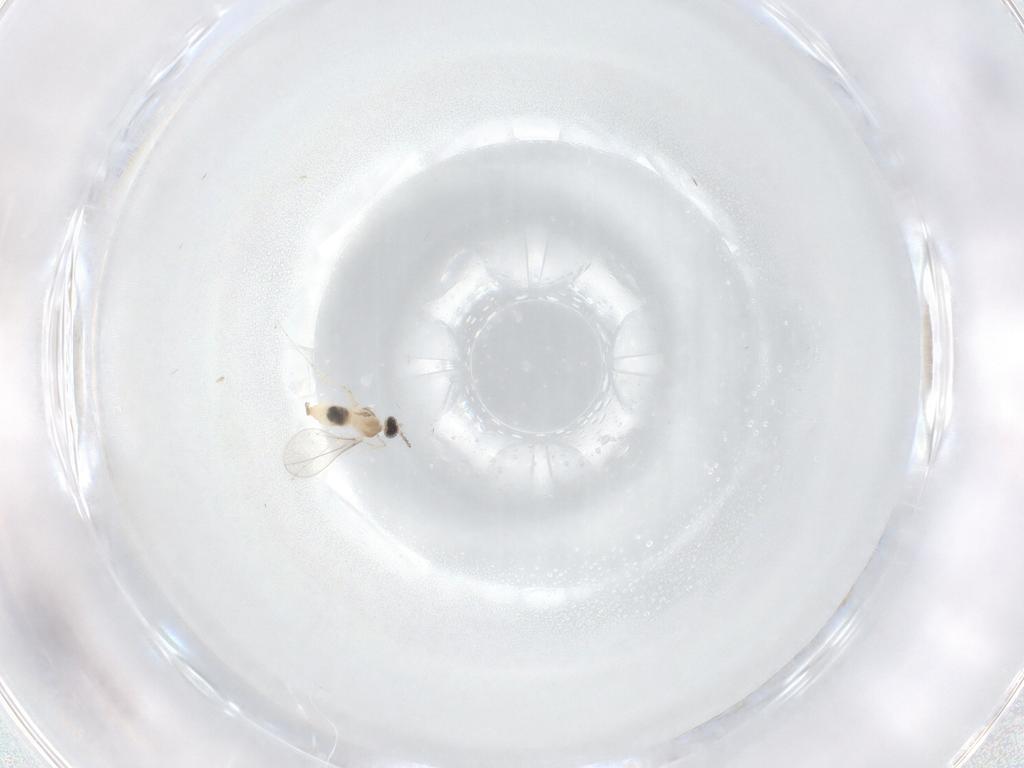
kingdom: Animalia
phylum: Arthropoda
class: Insecta
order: Diptera
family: Cecidomyiidae
